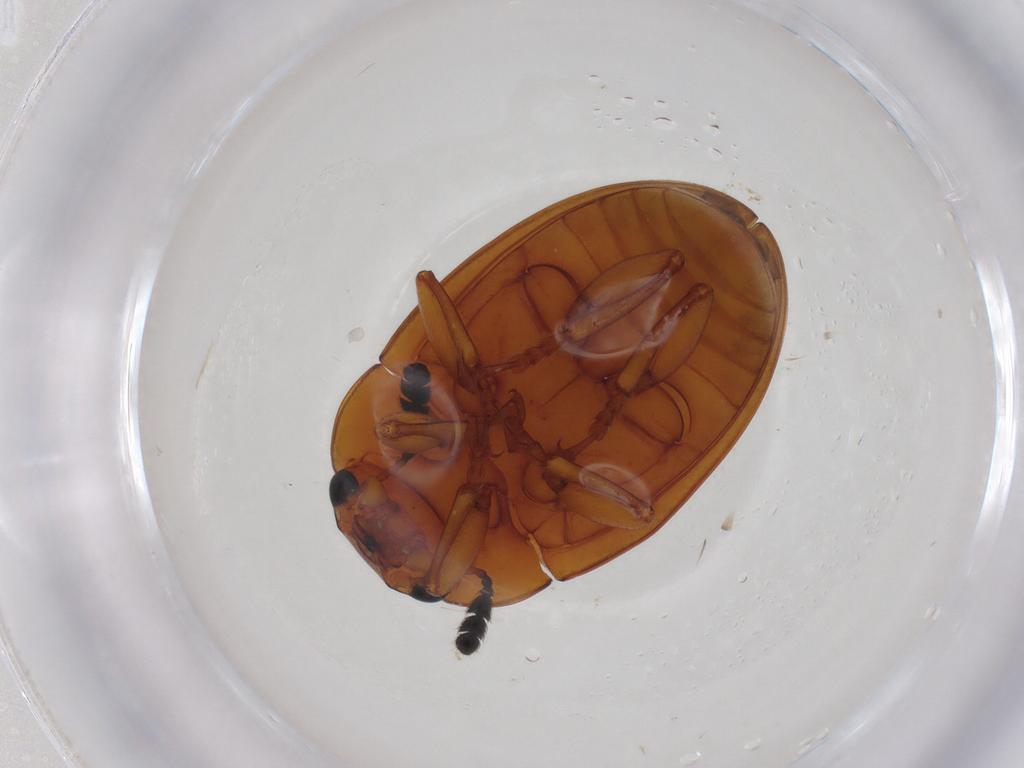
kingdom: Animalia
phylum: Arthropoda
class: Insecta
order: Coleoptera
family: Erotylidae
